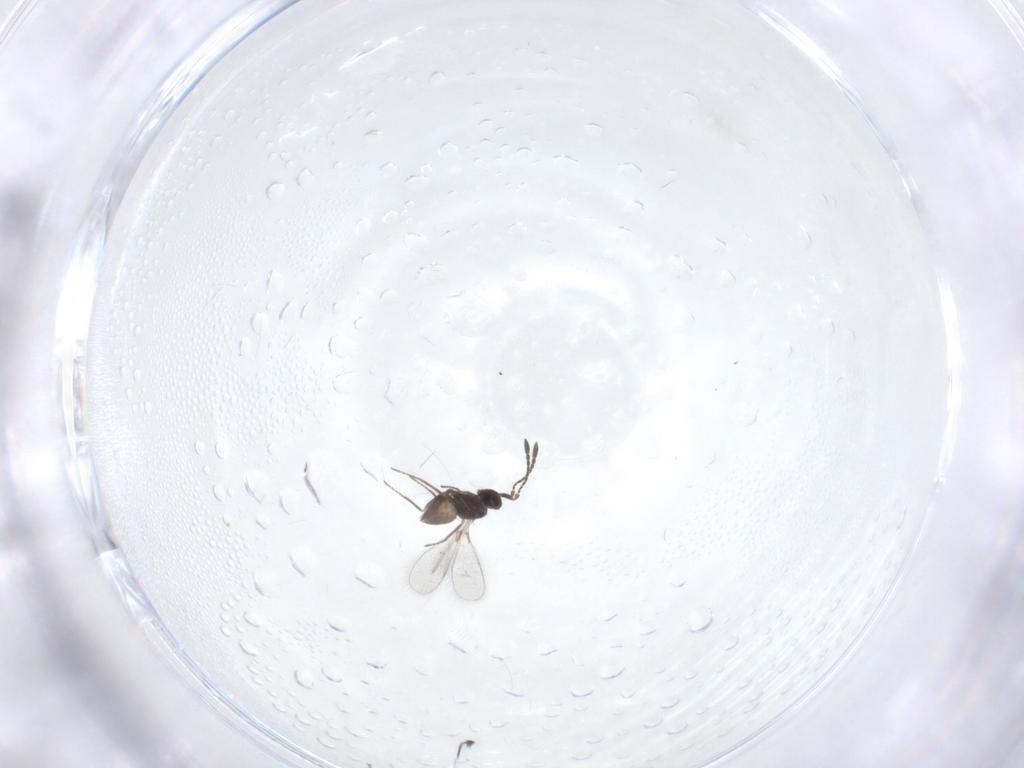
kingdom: Animalia
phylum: Arthropoda
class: Insecta
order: Hymenoptera
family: Mymaridae
